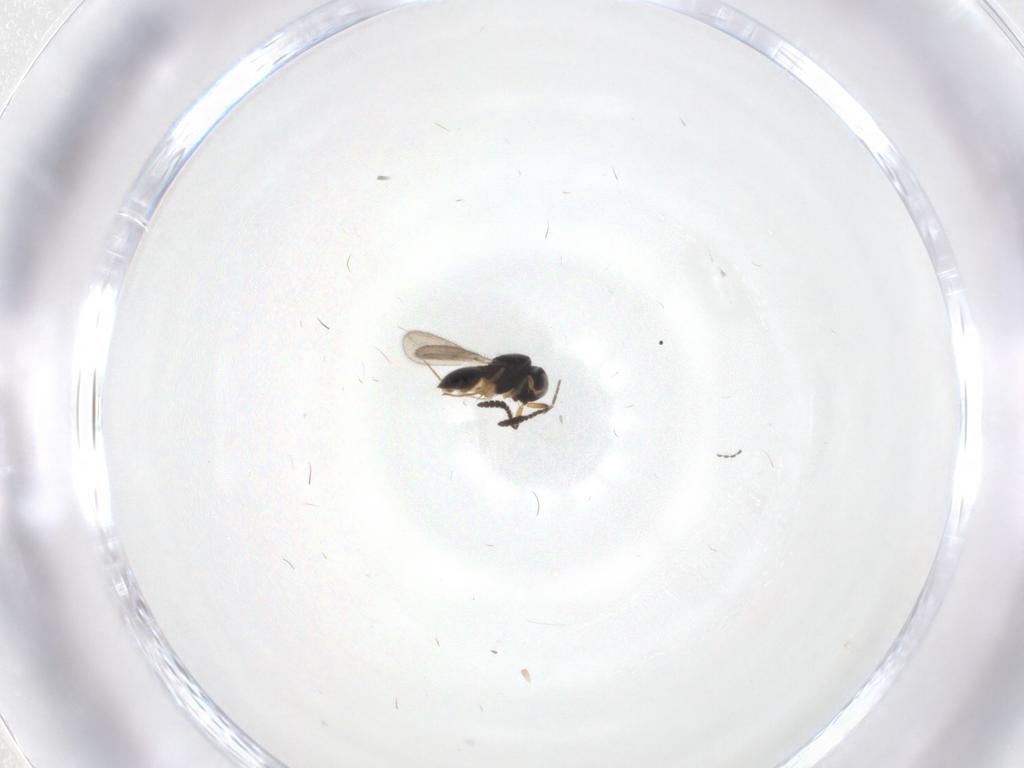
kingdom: Animalia
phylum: Arthropoda
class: Insecta
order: Hymenoptera
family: Scelionidae
